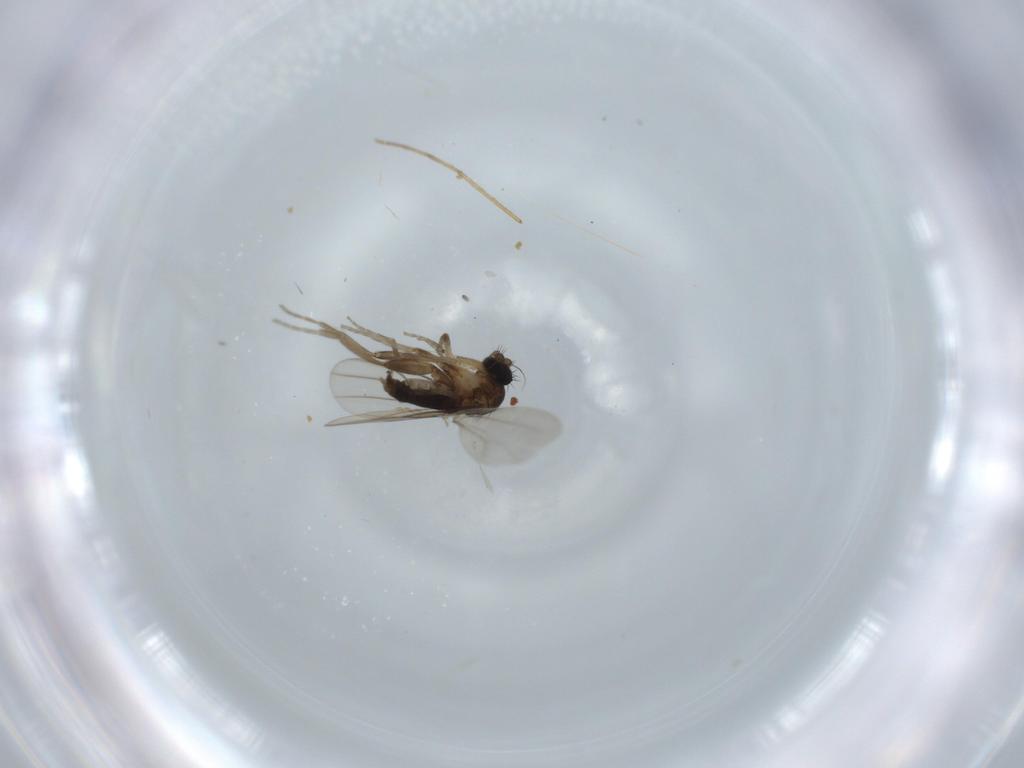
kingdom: Animalia
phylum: Arthropoda
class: Insecta
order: Diptera
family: Phoridae
